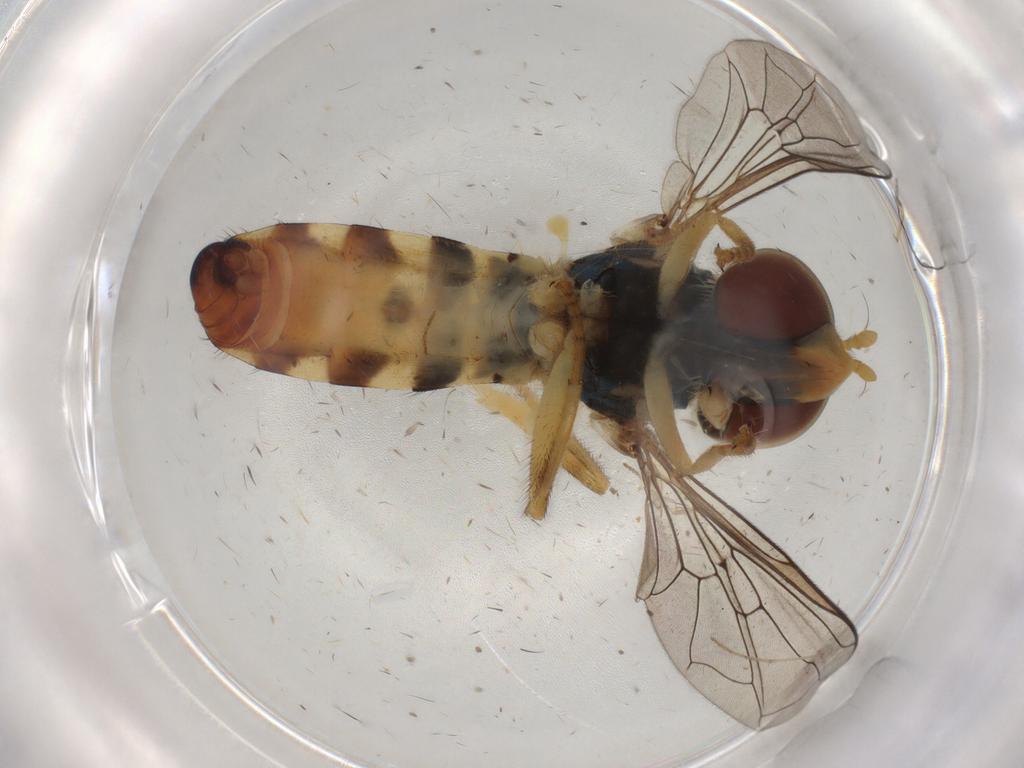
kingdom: Animalia
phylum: Arthropoda
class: Insecta
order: Diptera
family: Syrphidae
